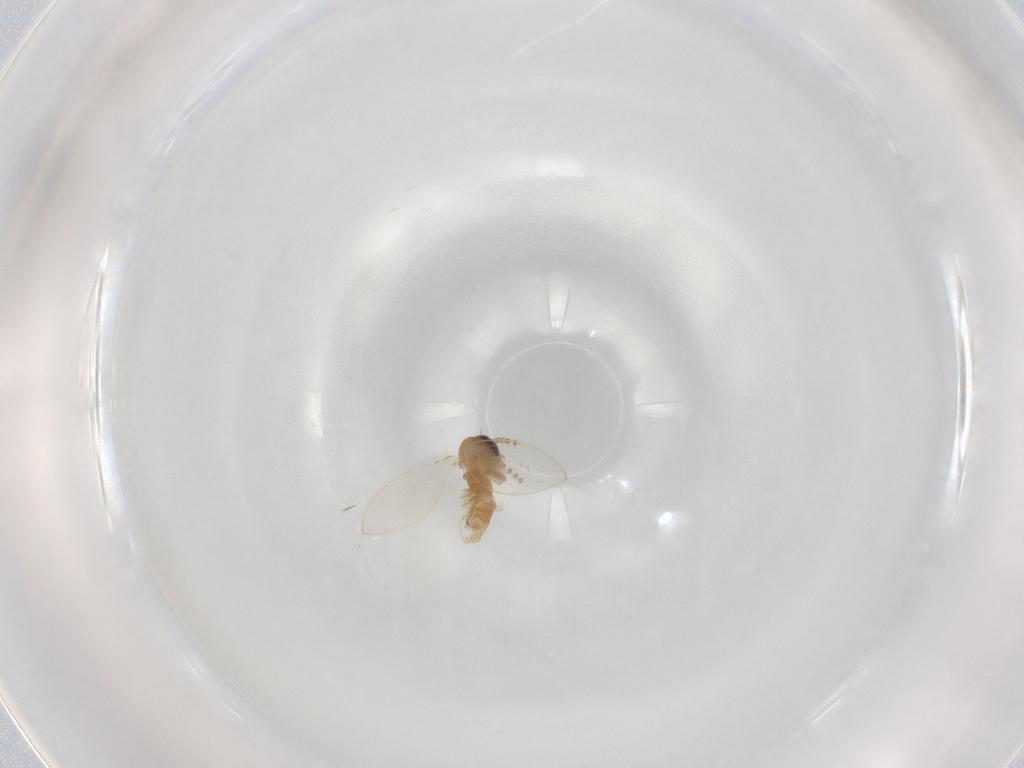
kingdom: Animalia
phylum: Arthropoda
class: Insecta
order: Diptera
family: Psychodidae
